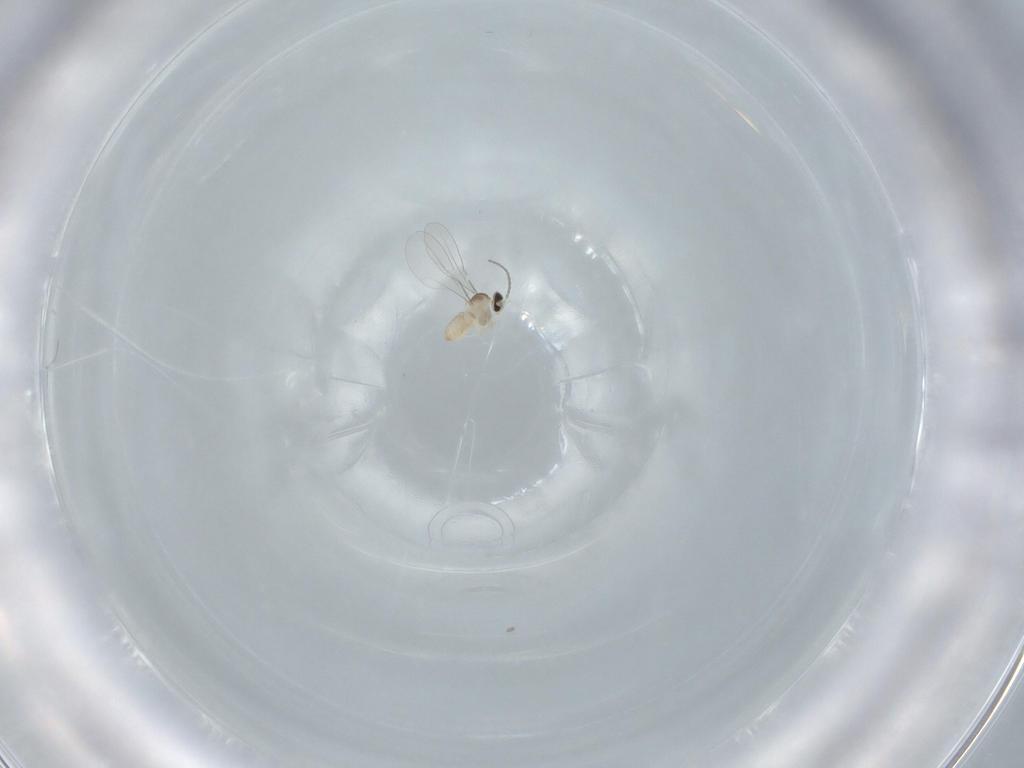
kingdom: Animalia
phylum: Arthropoda
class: Insecta
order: Diptera
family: Cecidomyiidae
